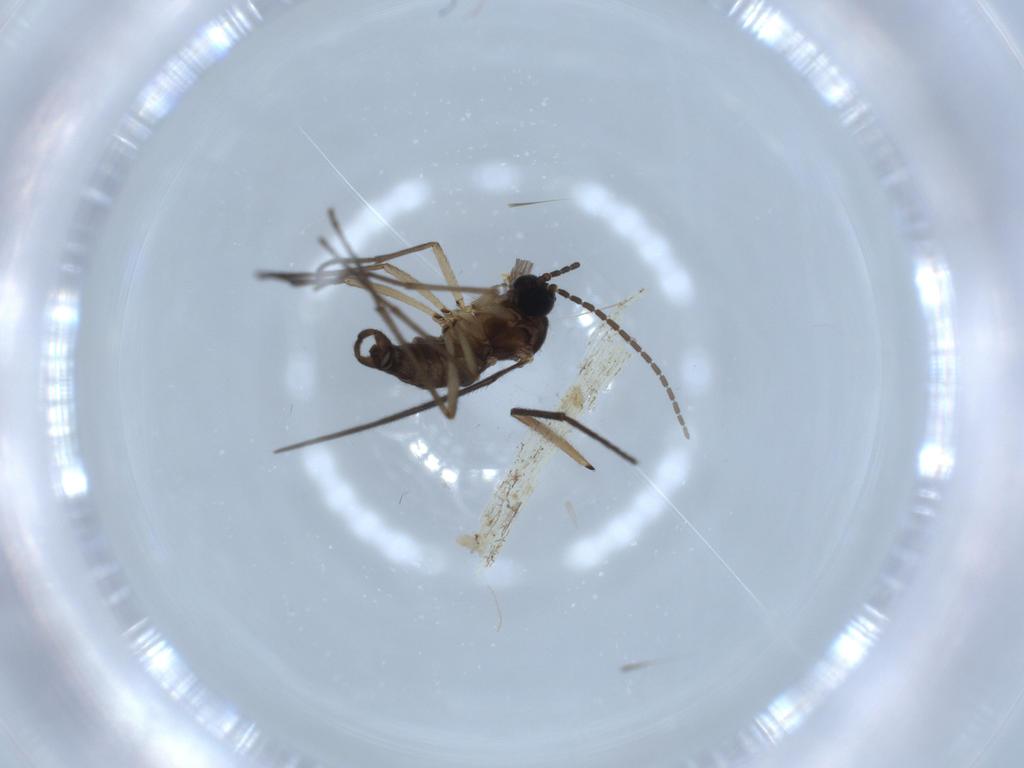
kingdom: Animalia
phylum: Arthropoda
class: Insecta
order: Diptera
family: Sciaridae
